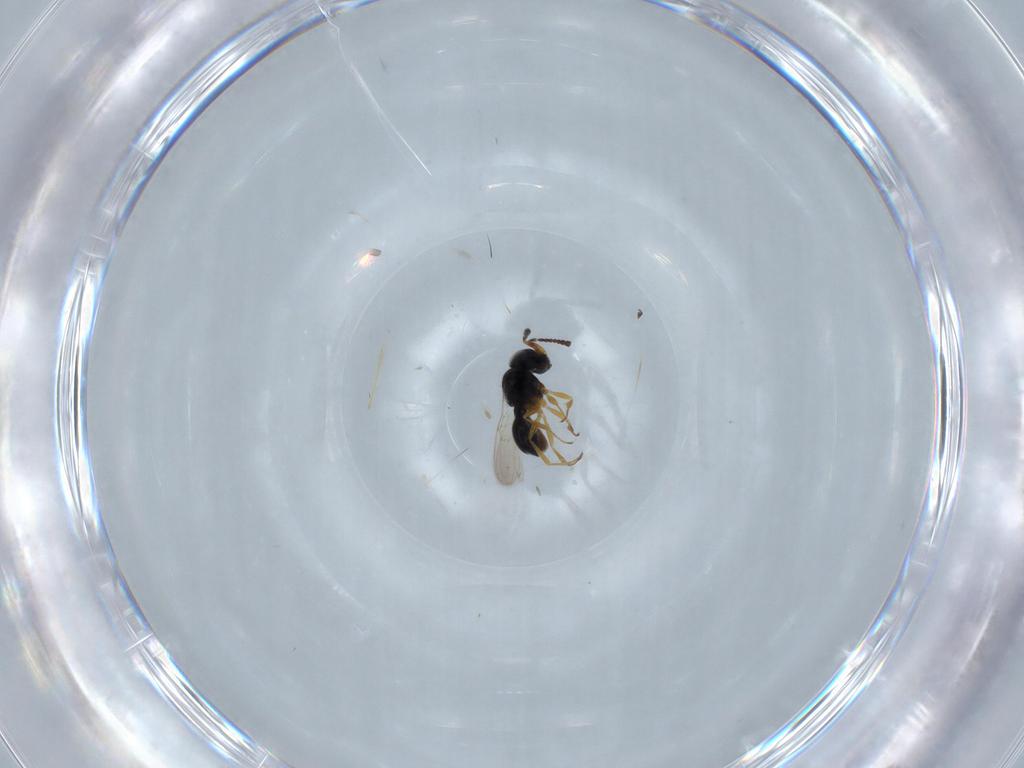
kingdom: Animalia
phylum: Arthropoda
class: Insecta
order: Hymenoptera
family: Scelionidae
